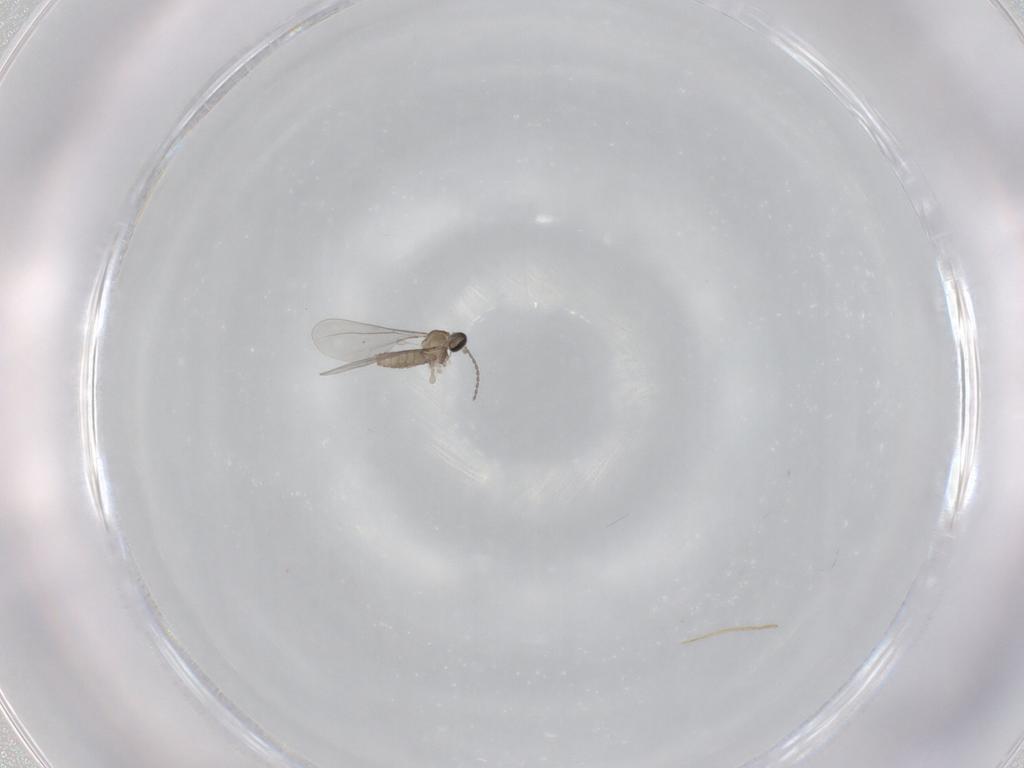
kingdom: Animalia
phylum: Arthropoda
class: Insecta
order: Diptera
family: Cecidomyiidae
